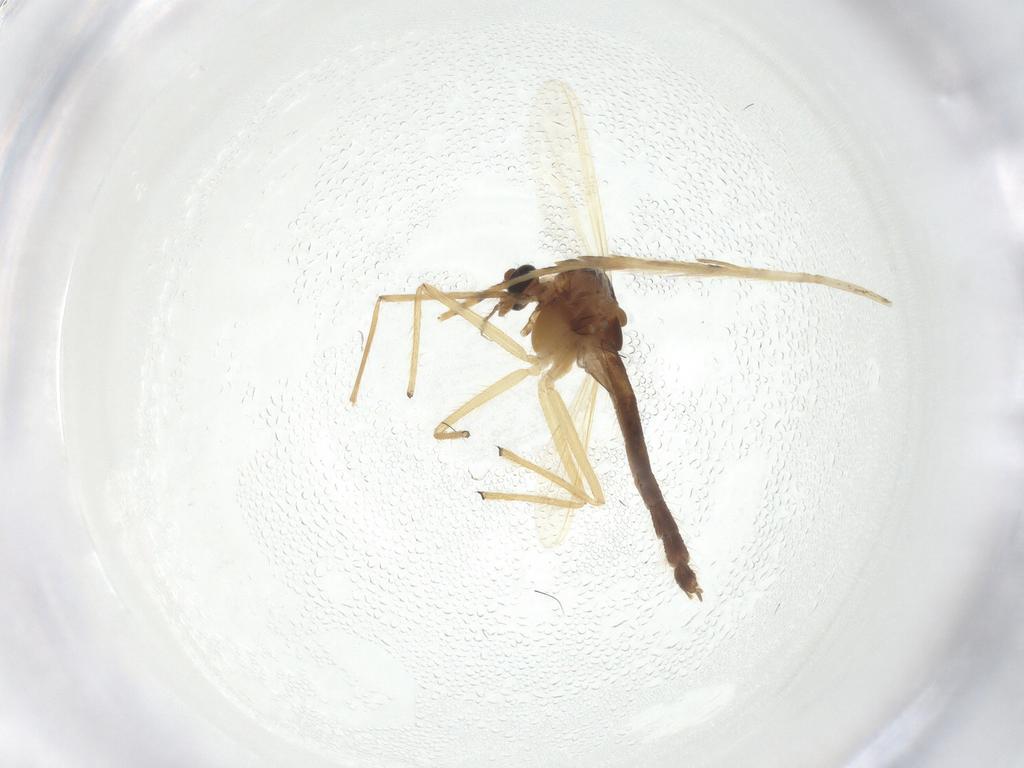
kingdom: Animalia
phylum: Arthropoda
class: Insecta
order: Diptera
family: Chironomidae
